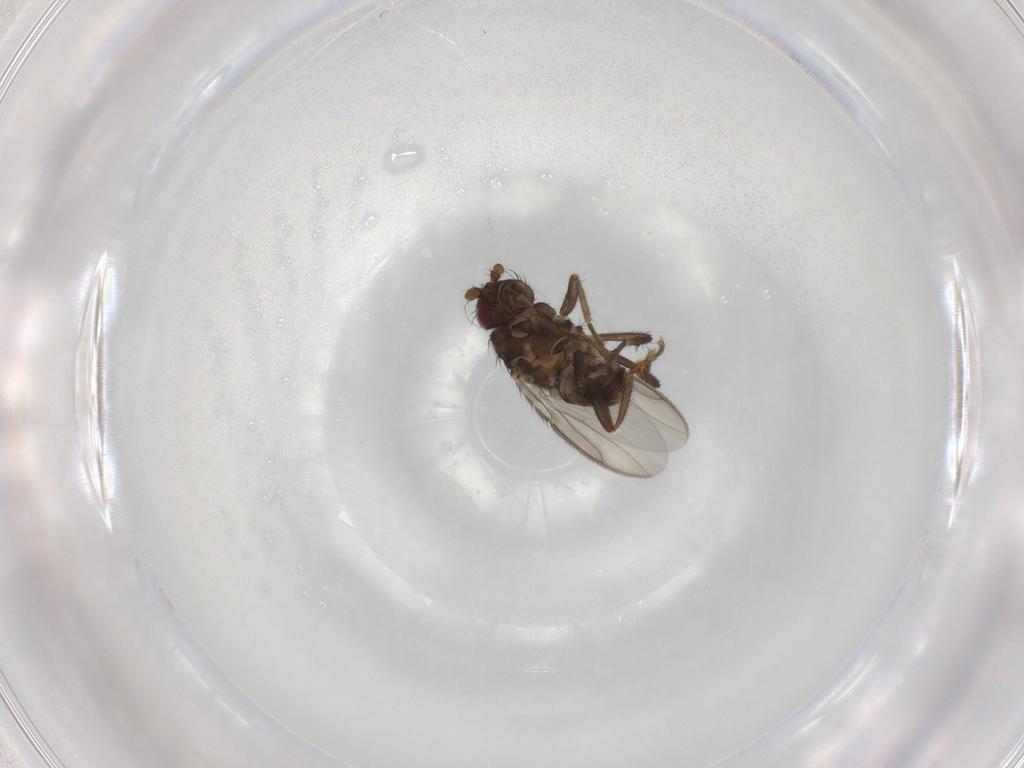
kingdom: Animalia
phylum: Arthropoda
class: Insecta
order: Diptera
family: Sphaeroceridae
